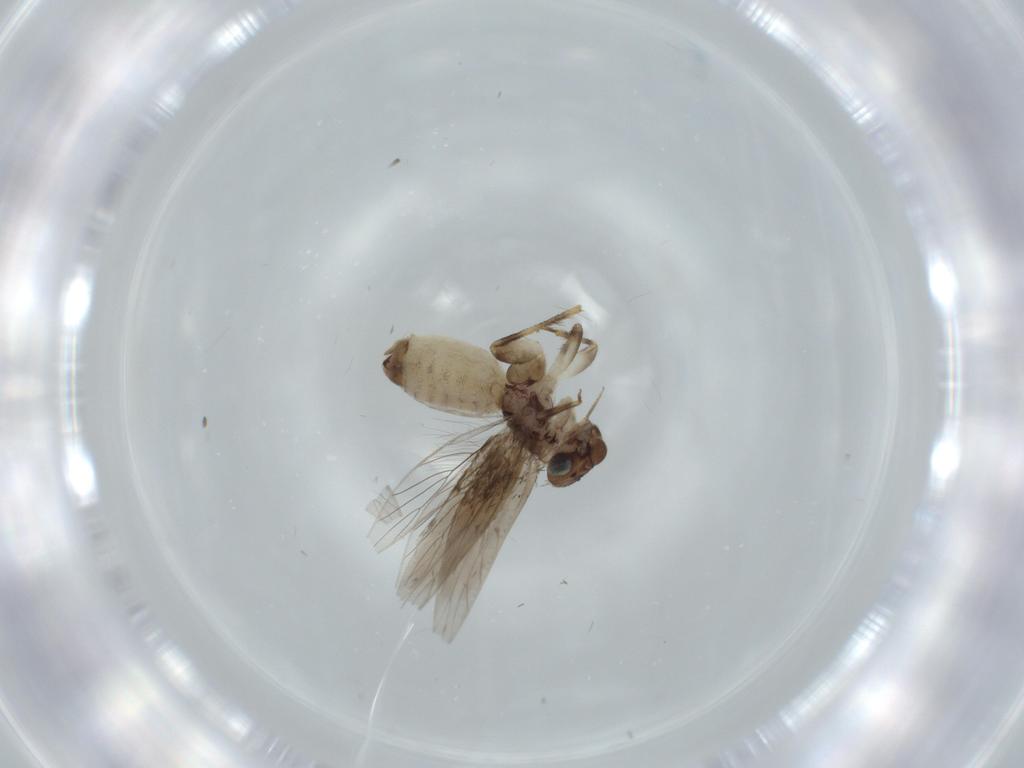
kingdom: Animalia
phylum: Arthropoda
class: Insecta
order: Psocodea
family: Lepidopsocidae
